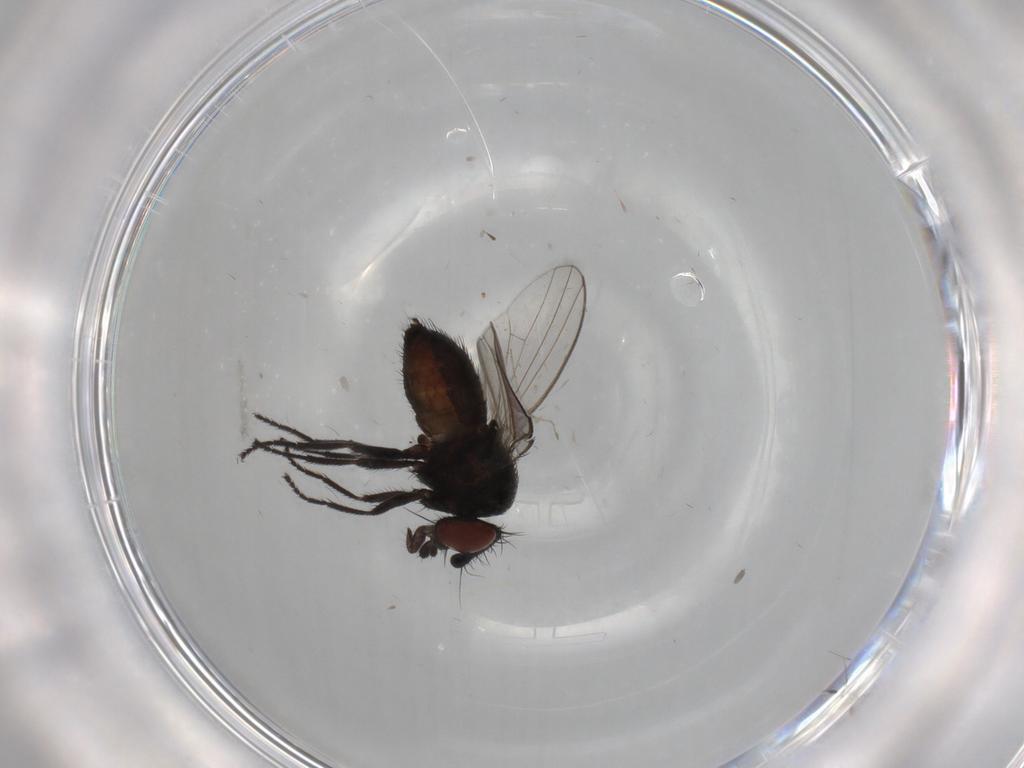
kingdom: Animalia
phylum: Arthropoda
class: Insecta
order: Diptera
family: Milichiidae
